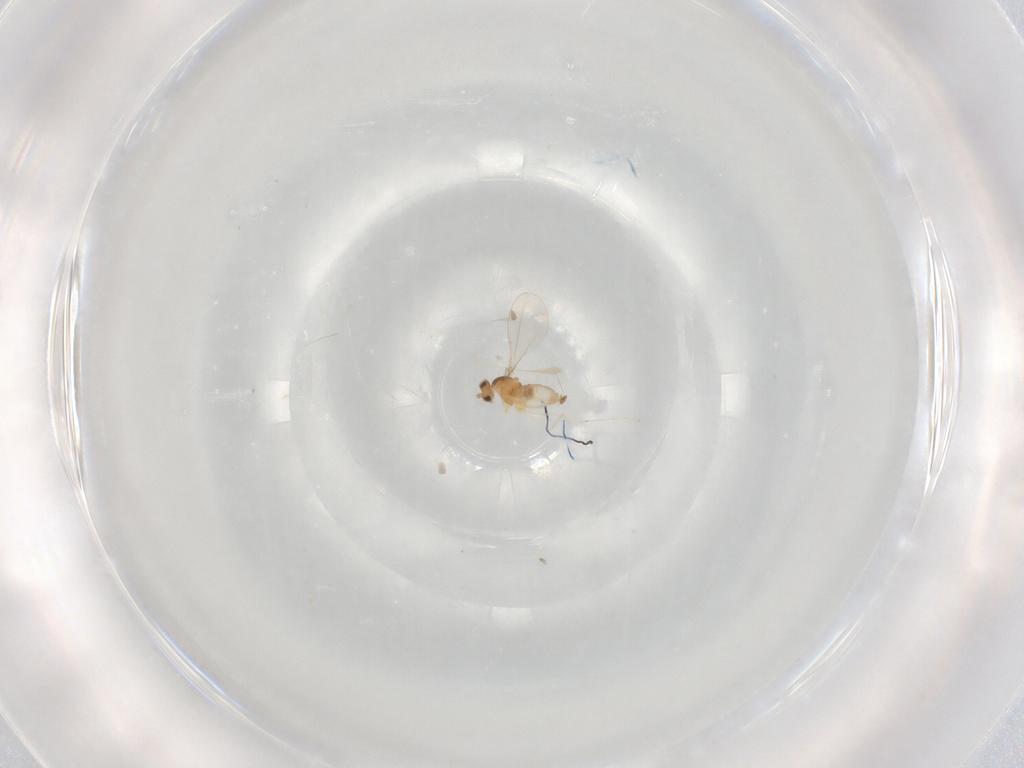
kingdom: Animalia
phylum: Arthropoda
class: Insecta
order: Diptera
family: Cecidomyiidae
